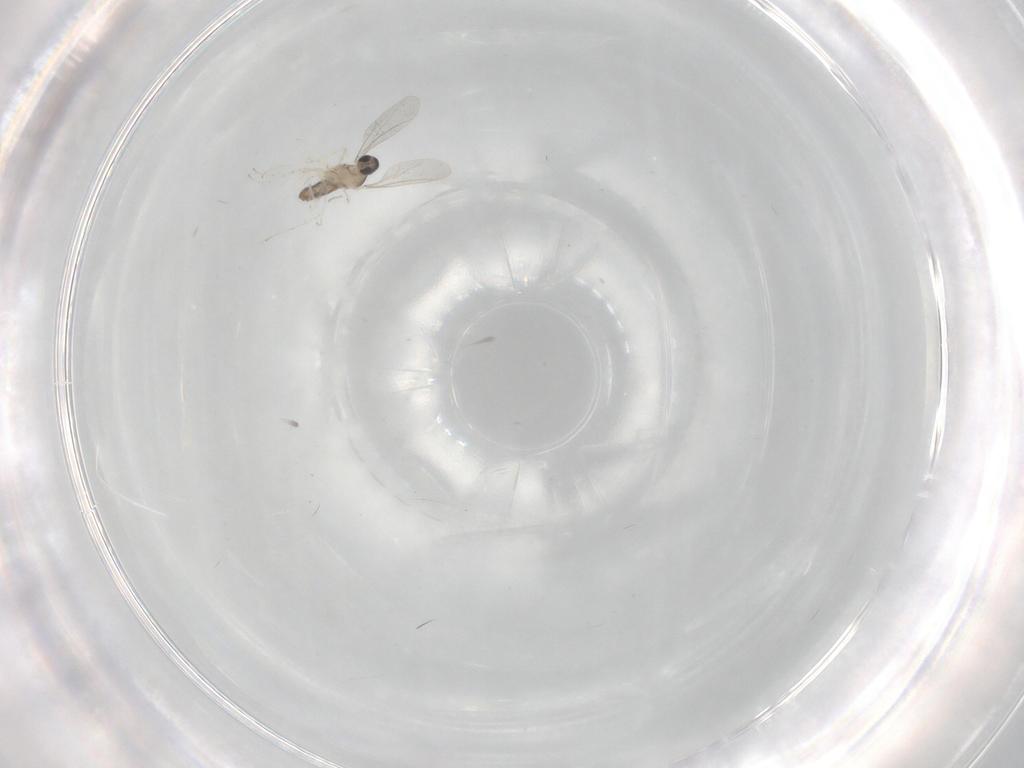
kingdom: Animalia
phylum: Arthropoda
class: Insecta
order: Diptera
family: Cecidomyiidae
